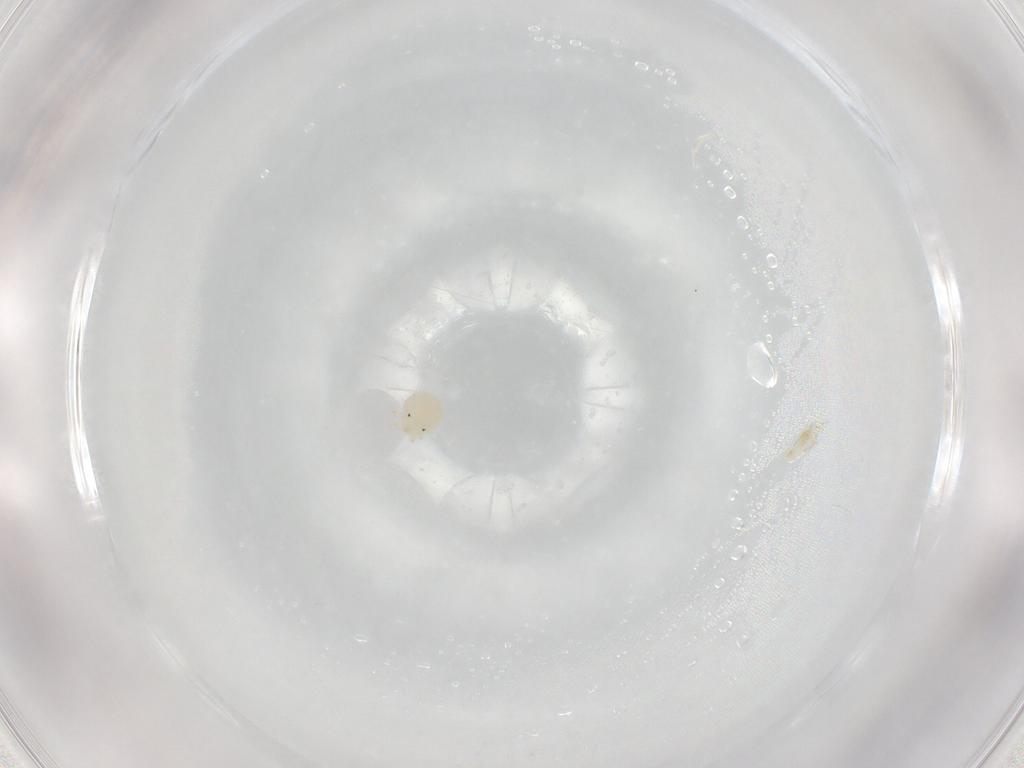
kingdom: Animalia
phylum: Arthropoda
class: Arachnida
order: Trombidiformes
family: Sperchontidae
